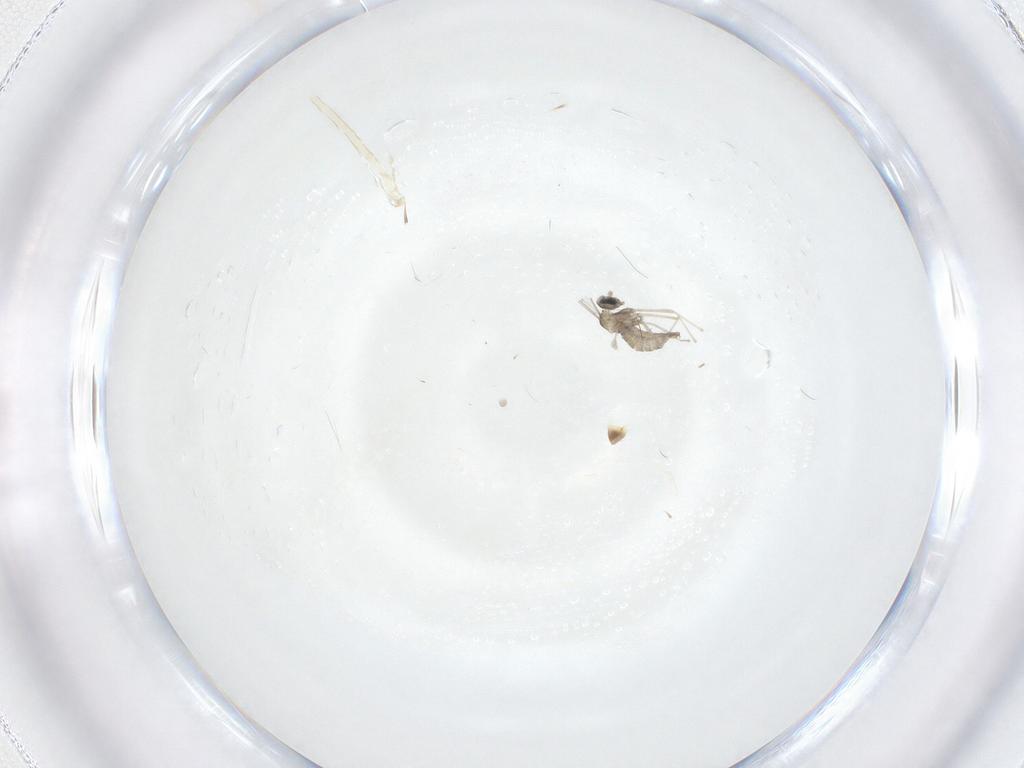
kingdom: Animalia
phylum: Arthropoda
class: Insecta
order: Diptera
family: Cecidomyiidae
